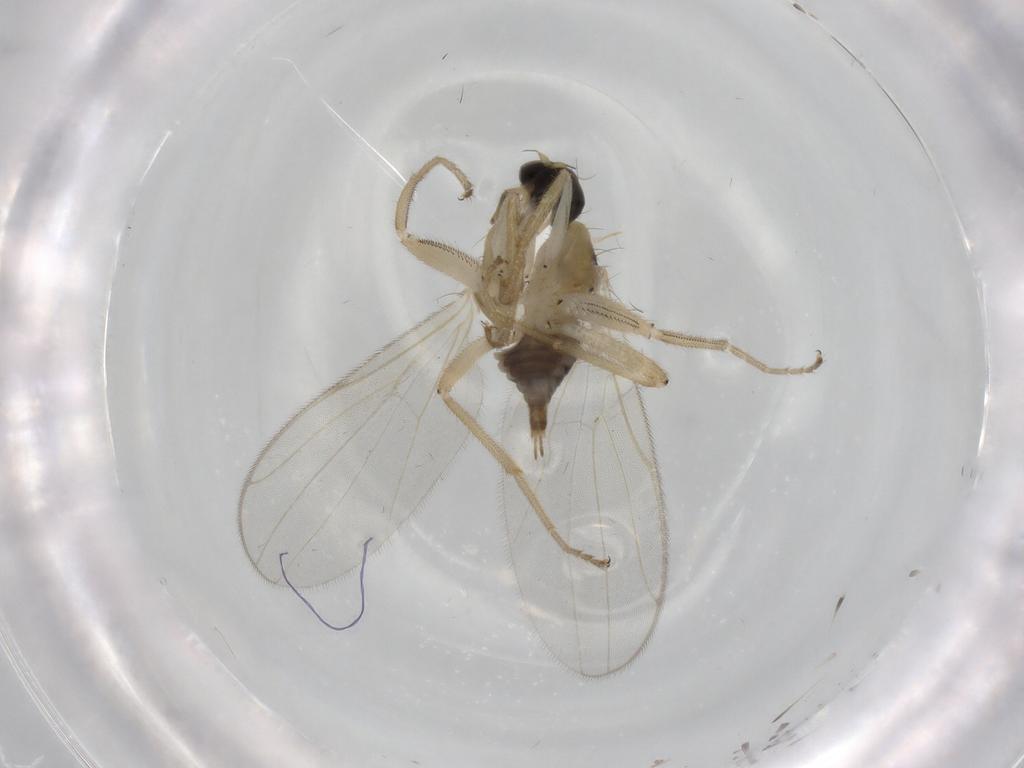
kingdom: Animalia
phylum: Arthropoda
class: Insecta
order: Diptera
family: Hybotidae
